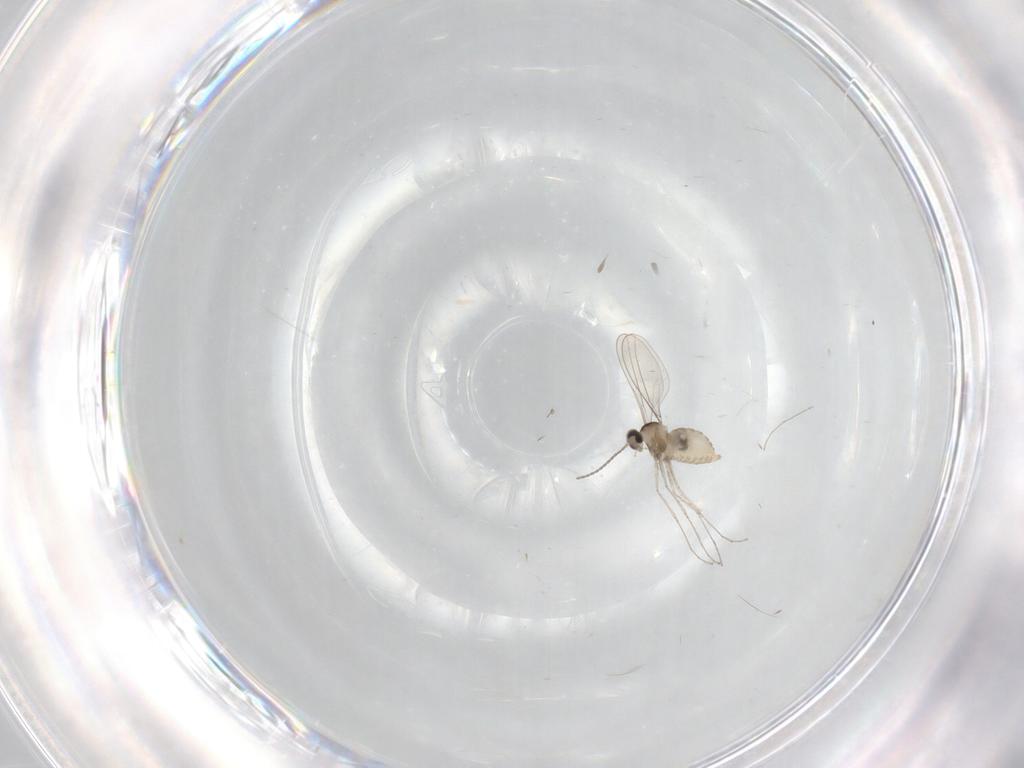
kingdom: Animalia
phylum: Arthropoda
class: Insecta
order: Diptera
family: Cecidomyiidae
